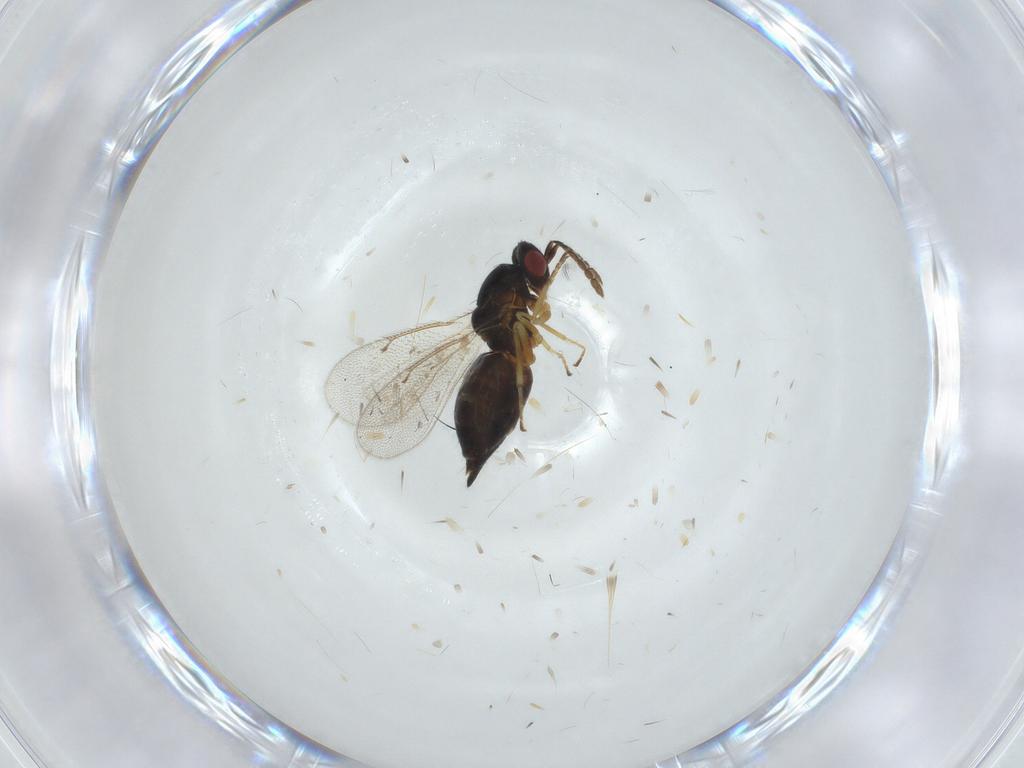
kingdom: Animalia
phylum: Arthropoda
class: Insecta
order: Hymenoptera
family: Eulophidae
